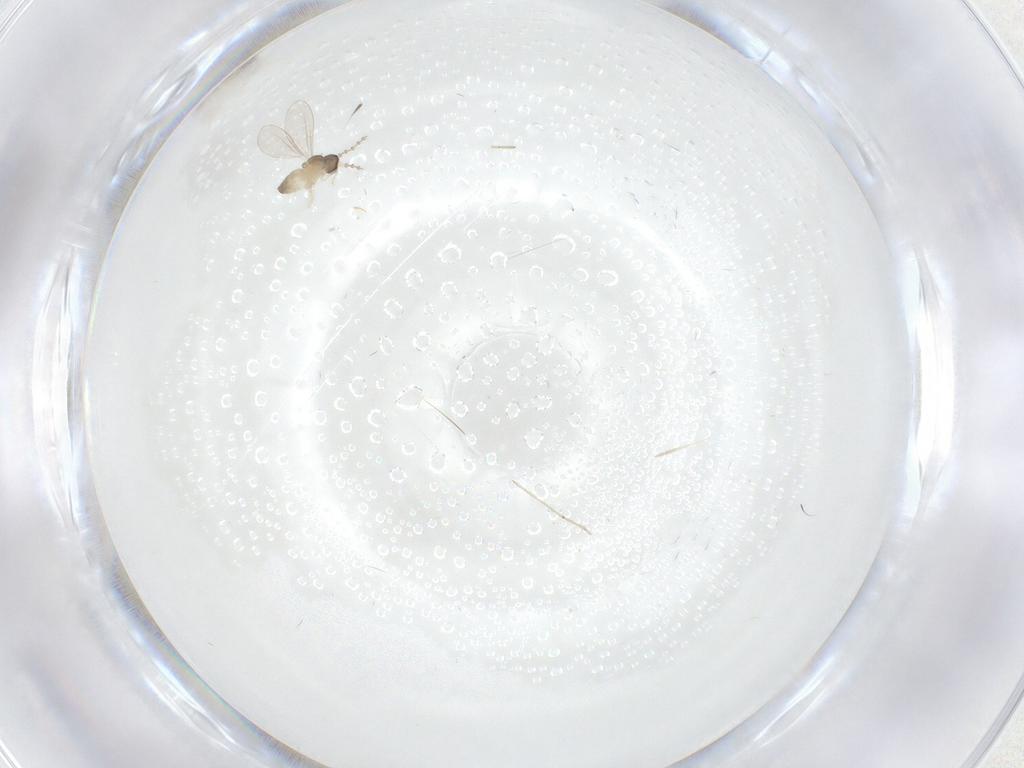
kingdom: Animalia
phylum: Arthropoda
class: Insecta
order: Diptera
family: Cecidomyiidae
